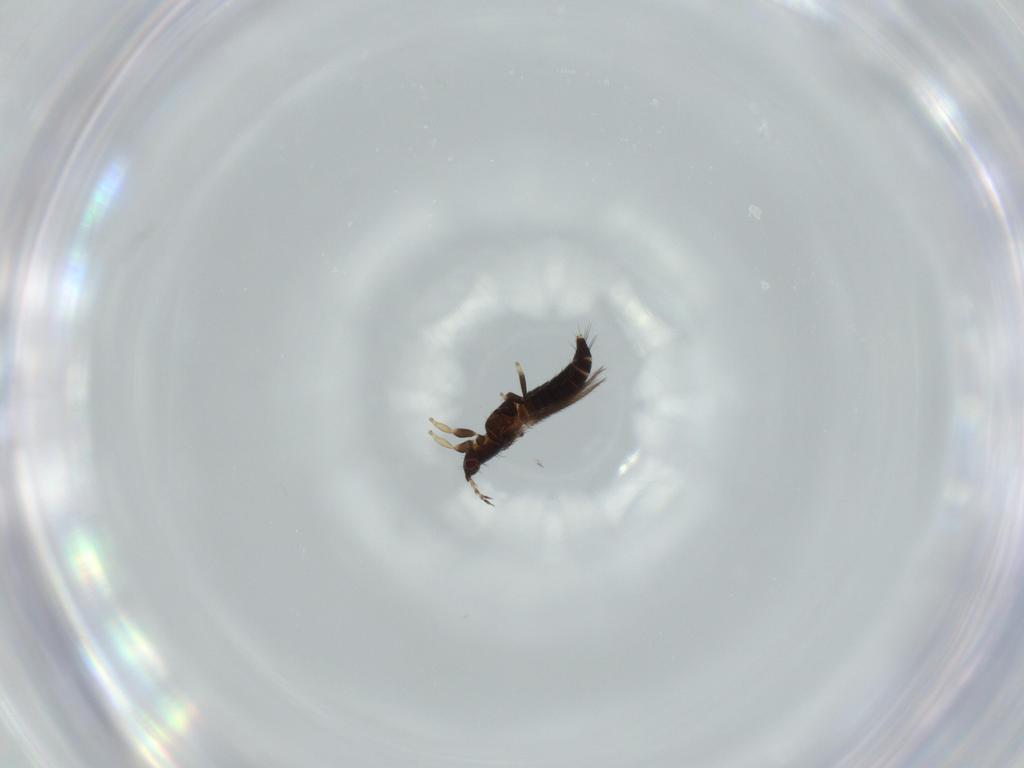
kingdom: Animalia
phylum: Arthropoda
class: Insecta
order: Thysanoptera
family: Thripidae
